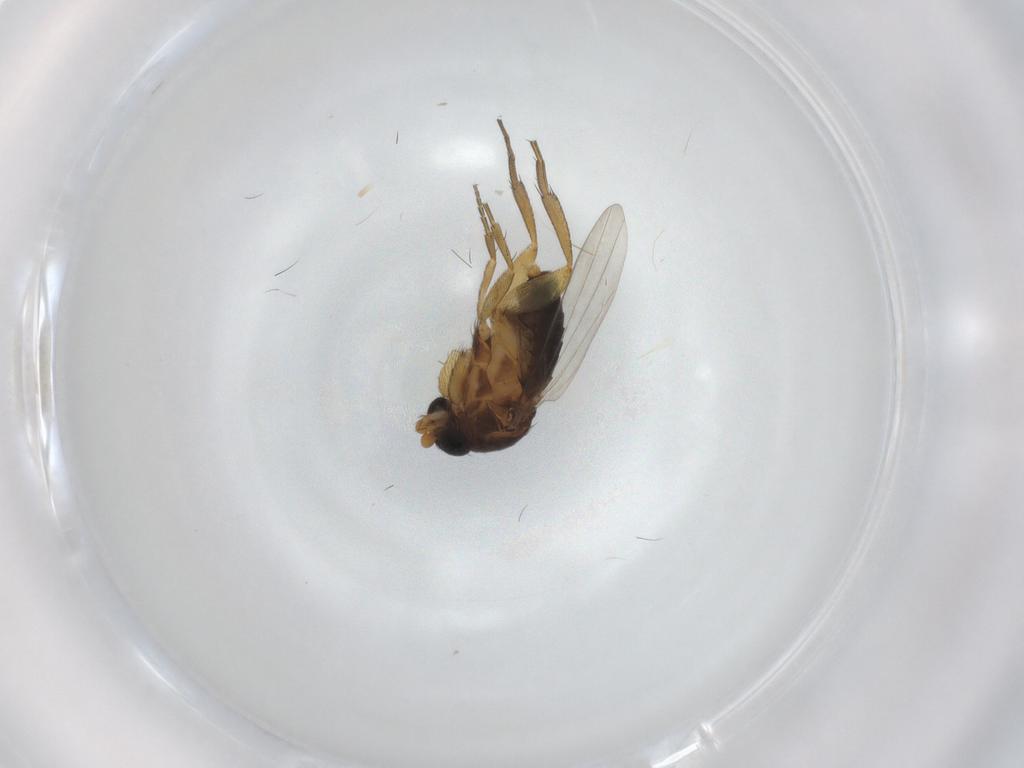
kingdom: Animalia
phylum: Arthropoda
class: Insecta
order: Diptera
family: Phoridae
